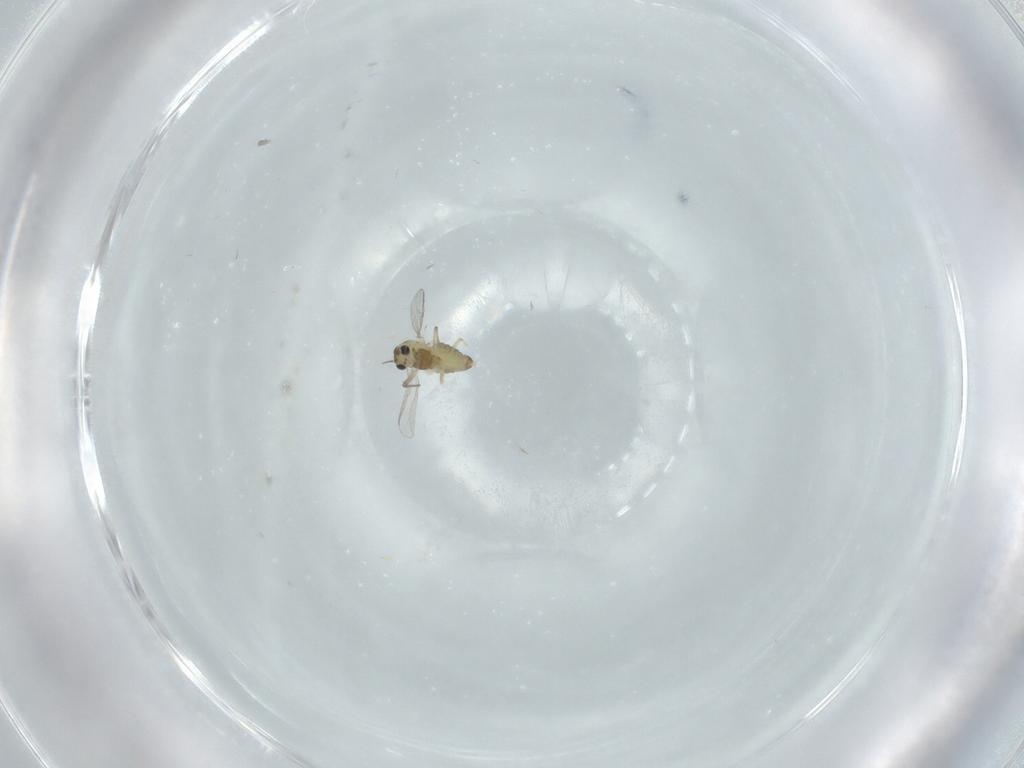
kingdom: Animalia
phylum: Arthropoda
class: Insecta
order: Diptera
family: Chironomidae
